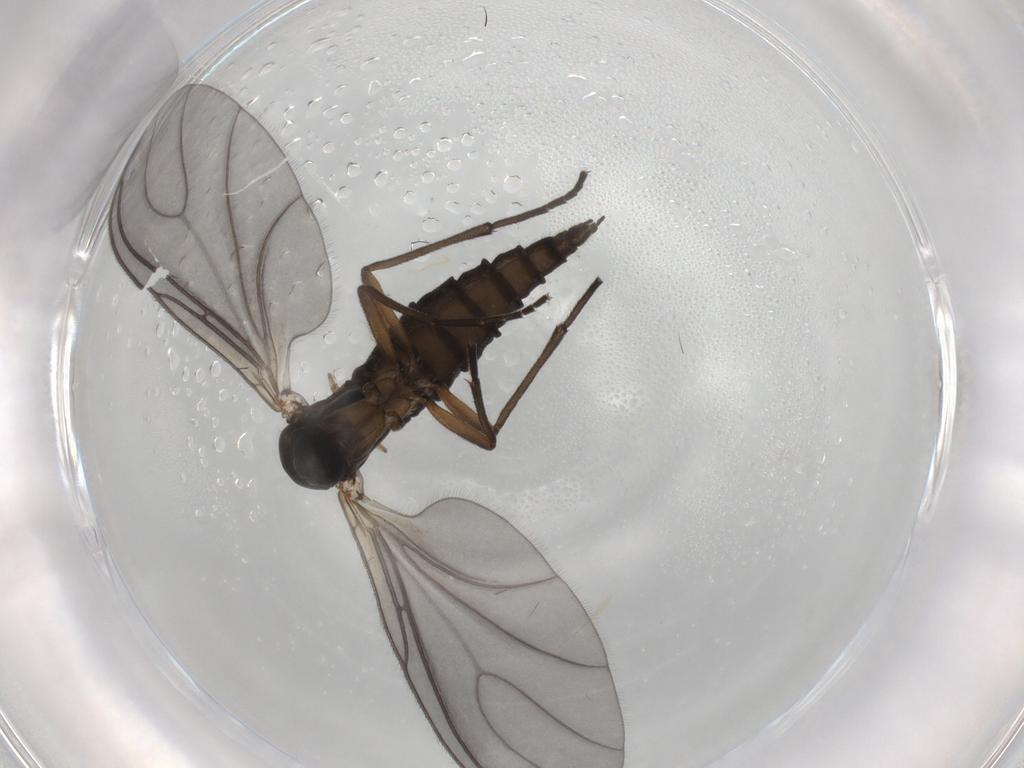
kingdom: Animalia
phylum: Arthropoda
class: Insecta
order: Diptera
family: Sciaridae
